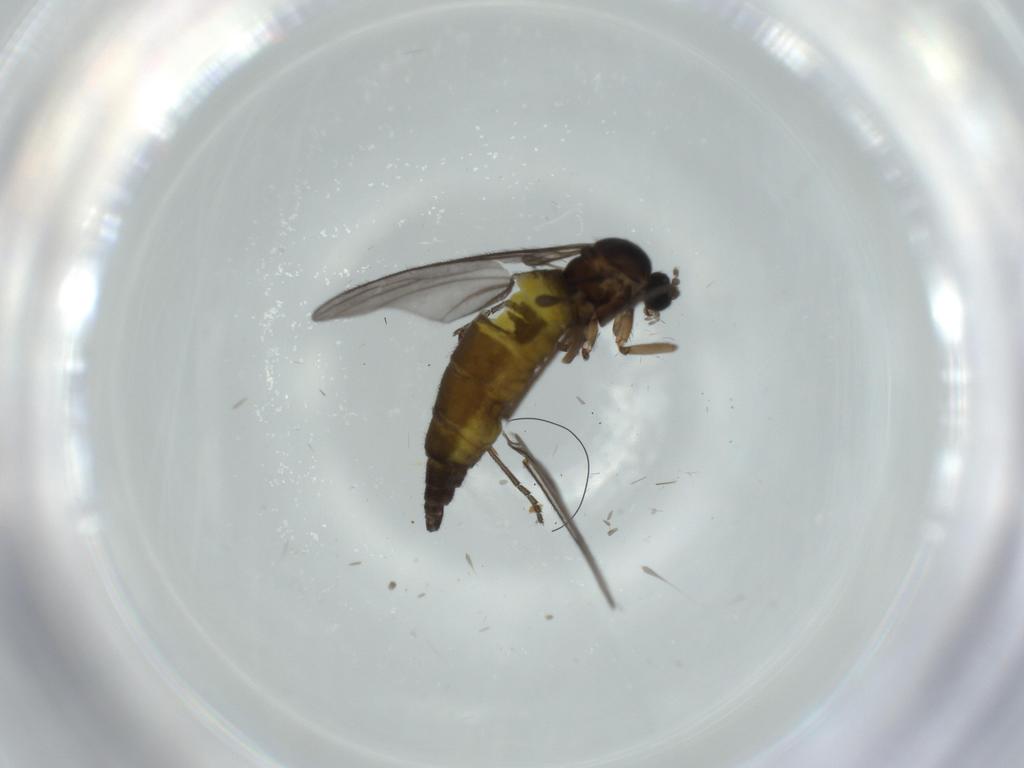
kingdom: Animalia
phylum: Arthropoda
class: Insecta
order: Diptera
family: Sciaridae
